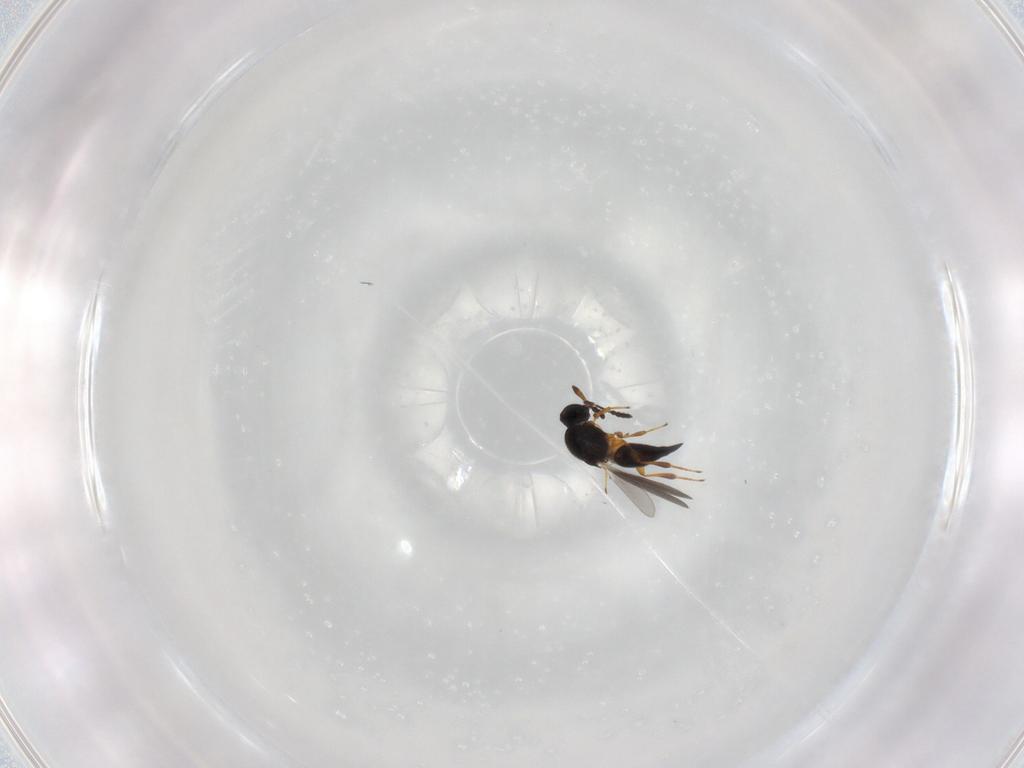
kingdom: Animalia
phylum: Arthropoda
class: Insecta
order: Hymenoptera
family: Platygastridae
